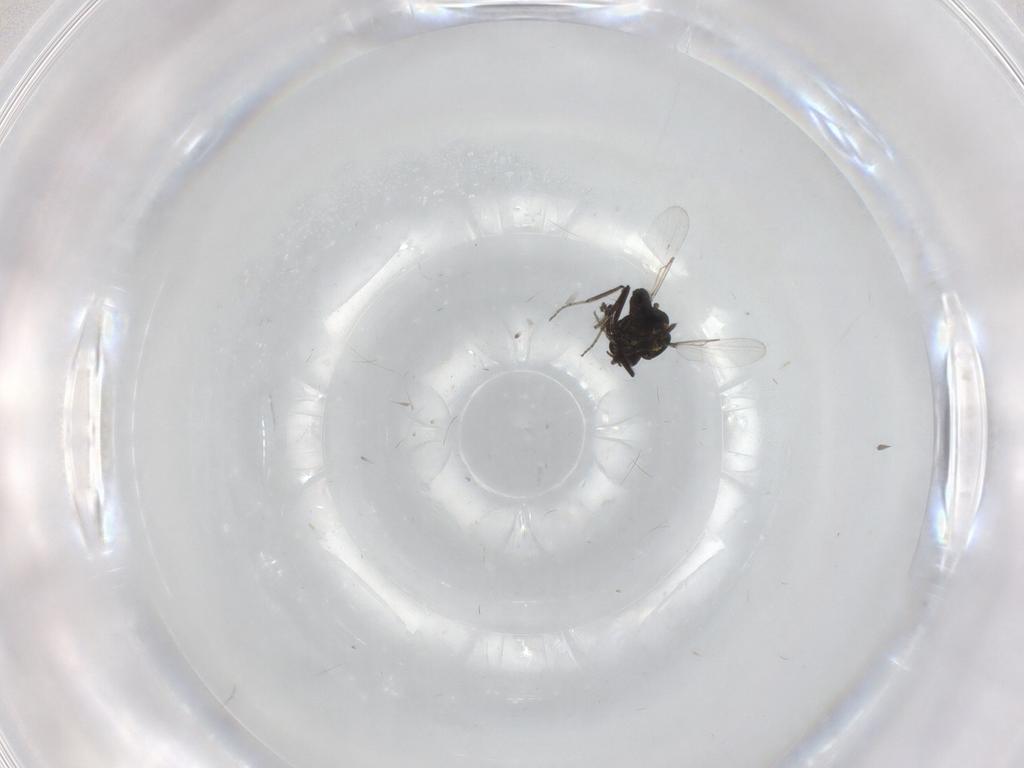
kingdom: Animalia
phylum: Arthropoda
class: Insecta
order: Diptera
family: Ceratopogonidae
